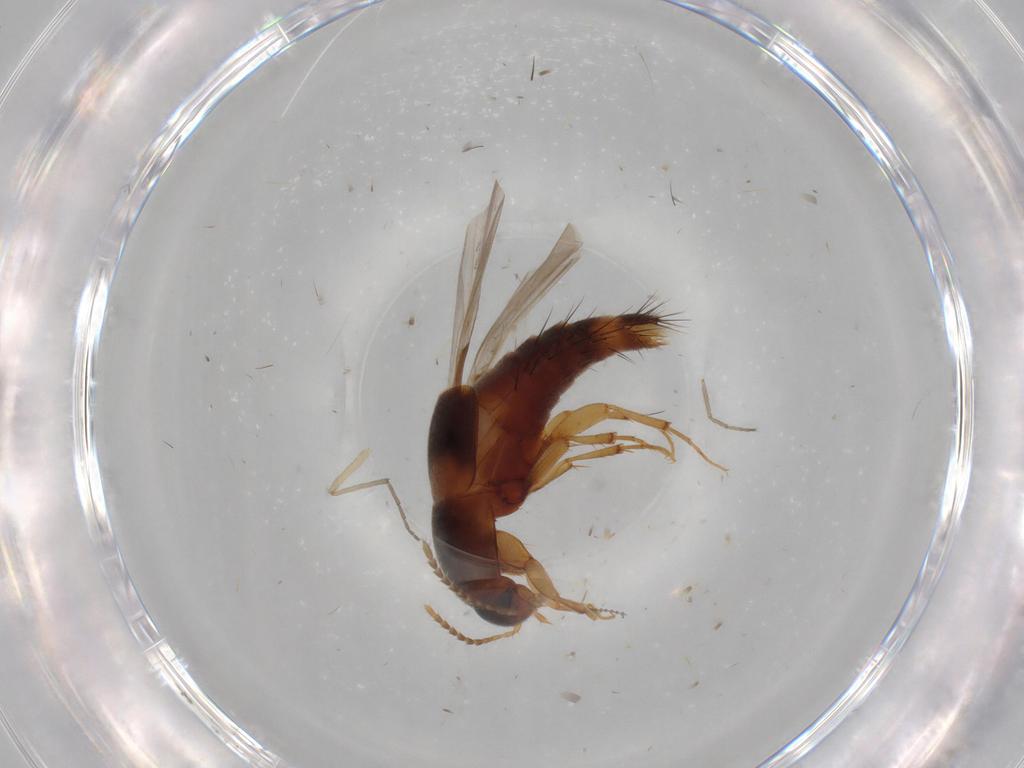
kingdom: Animalia
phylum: Arthropoda
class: Insecta
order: Coleoptera
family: Staphylinidae
